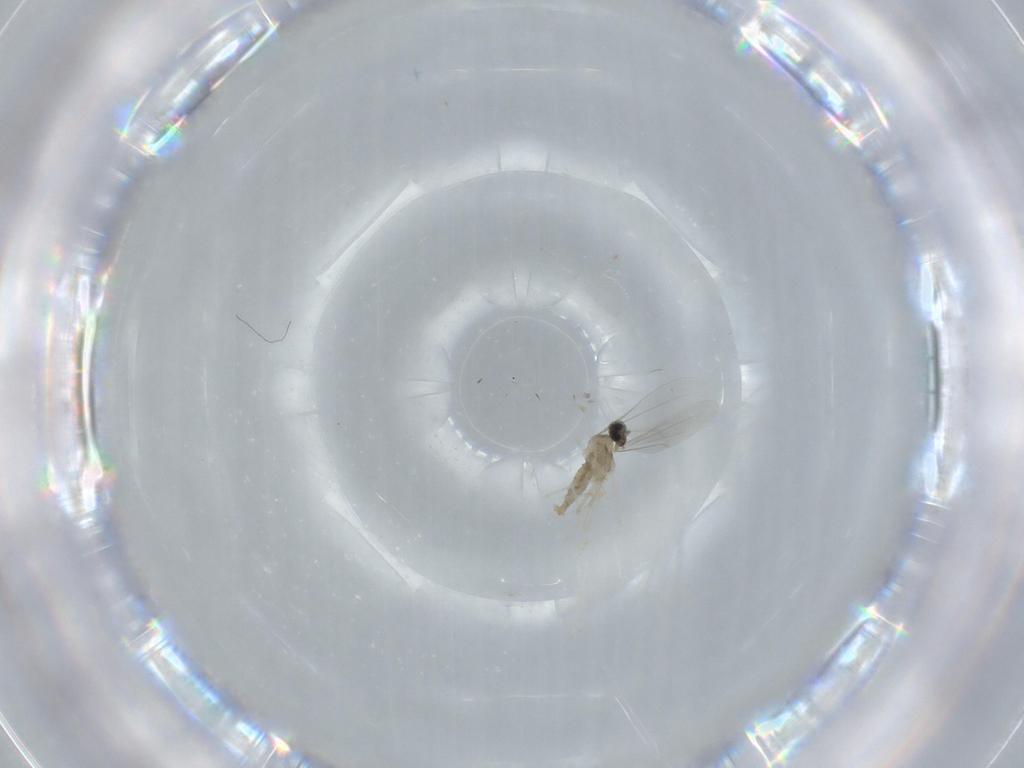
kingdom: Animalia
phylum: Arthropoda
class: Insecta
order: Diptera
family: Cecidomyiidae
